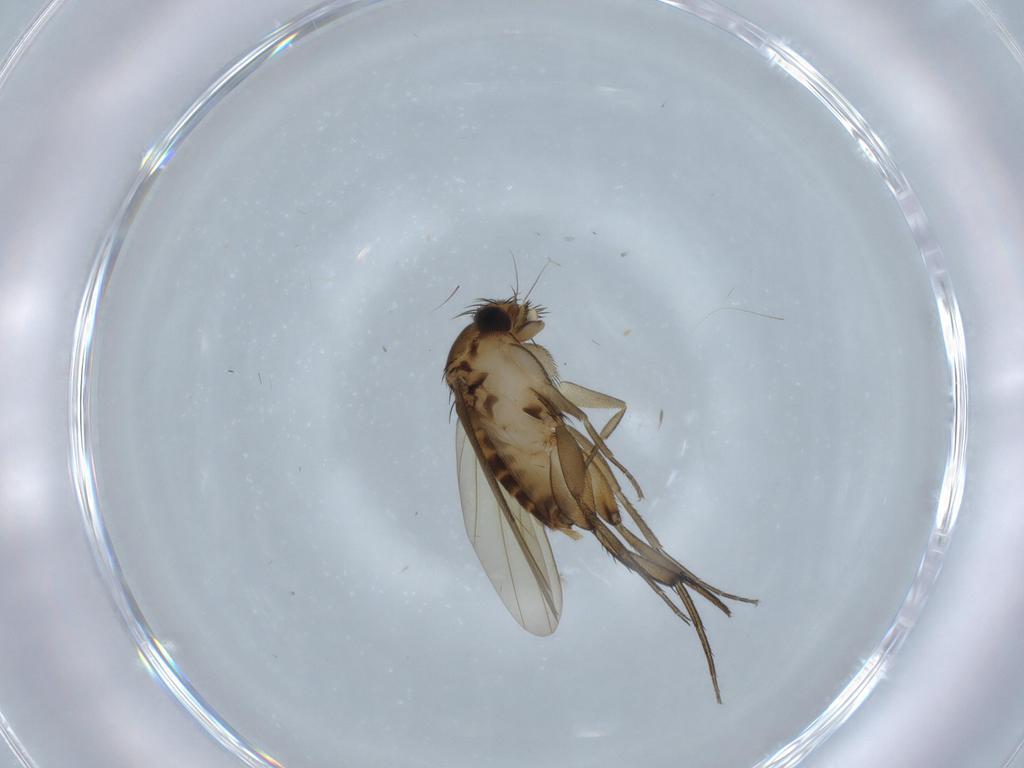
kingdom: Animalia
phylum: Arthropoda
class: Insecta
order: Diptera
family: Phoridae
